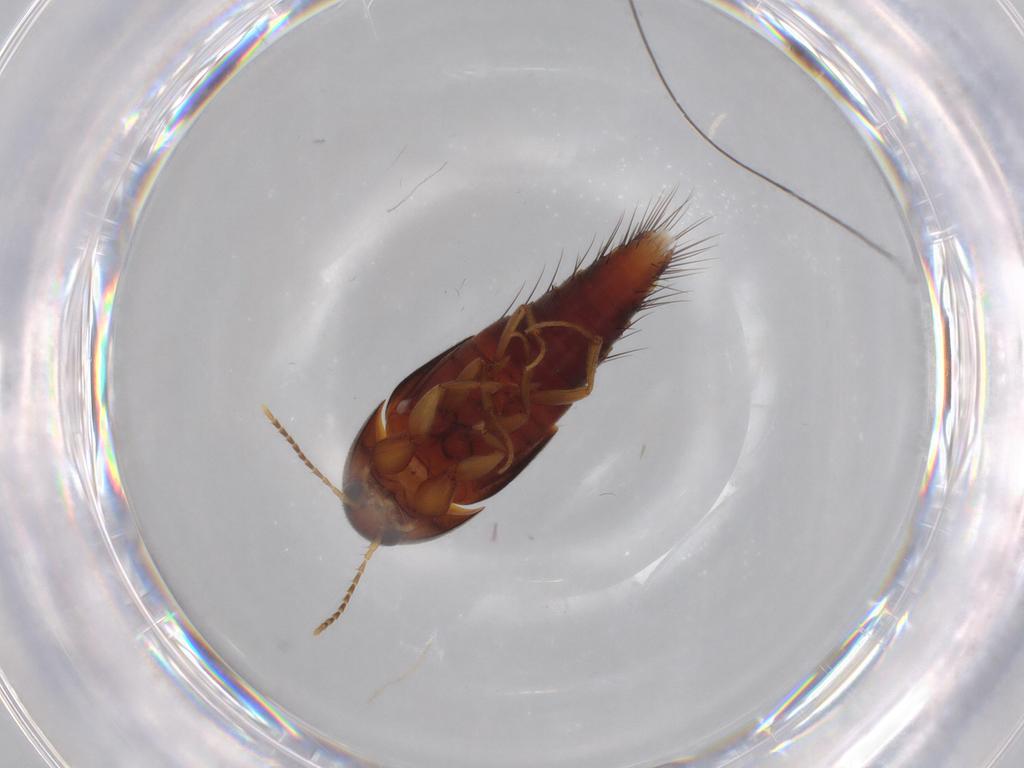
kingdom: Animalia
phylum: Arthropoda
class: Insecta
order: Coleoptera
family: Staphylinidae
